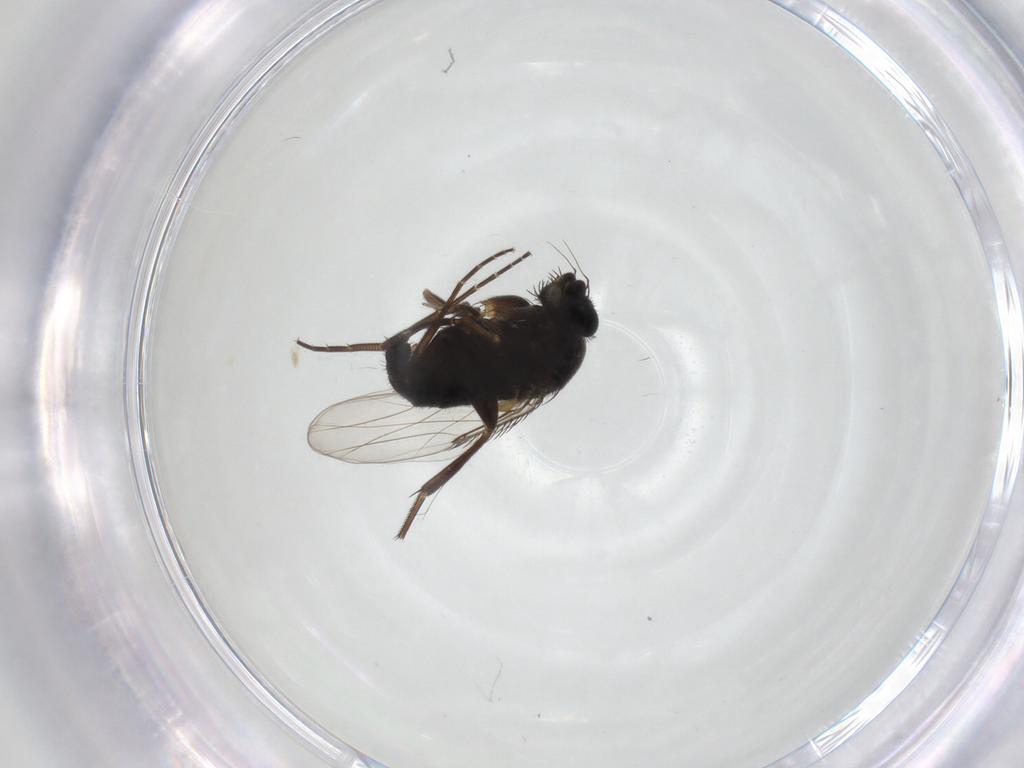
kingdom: Animalia
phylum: Arthropoda
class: Insecta
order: Diptera
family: Phoridae
